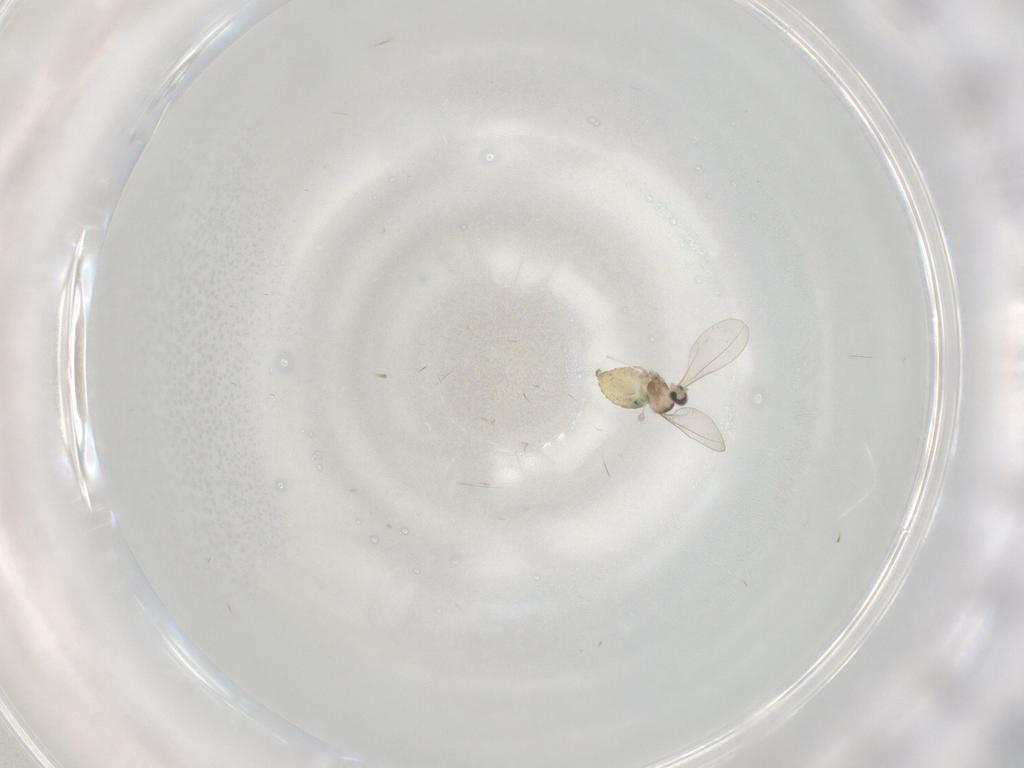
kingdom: Animalia
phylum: Arthropoda
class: Insecta
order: Diptera
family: Cecidomyiidae
